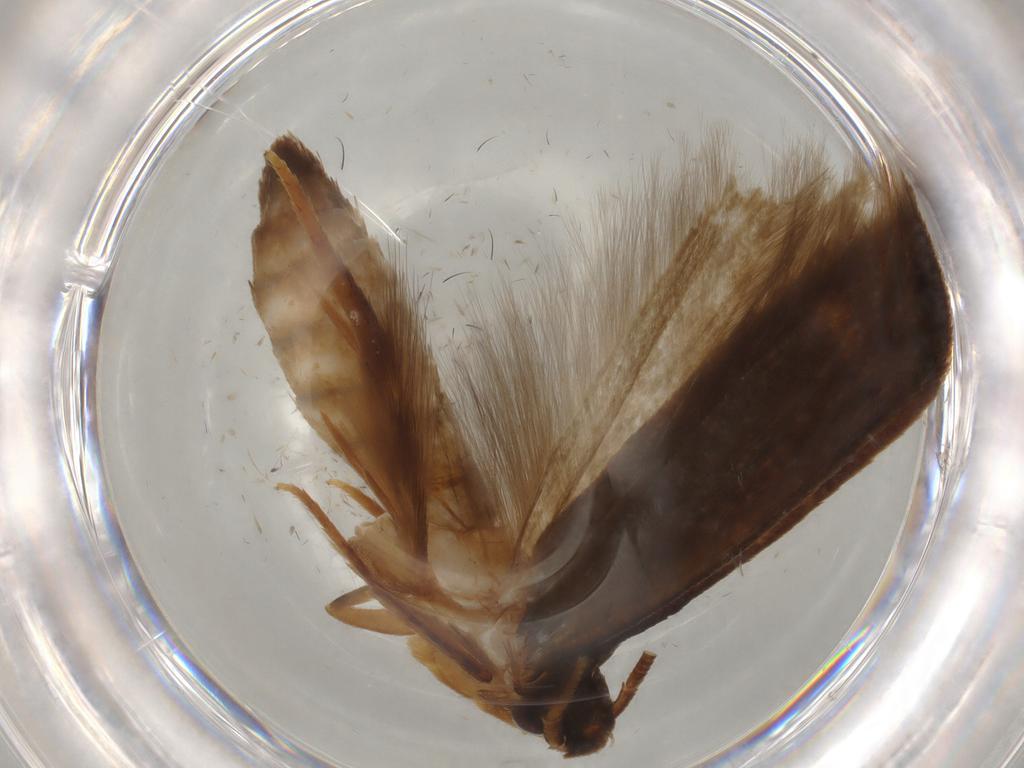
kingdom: Animalia
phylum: Arthropoda
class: Insecta
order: Lepidoptera
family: Tineidae
